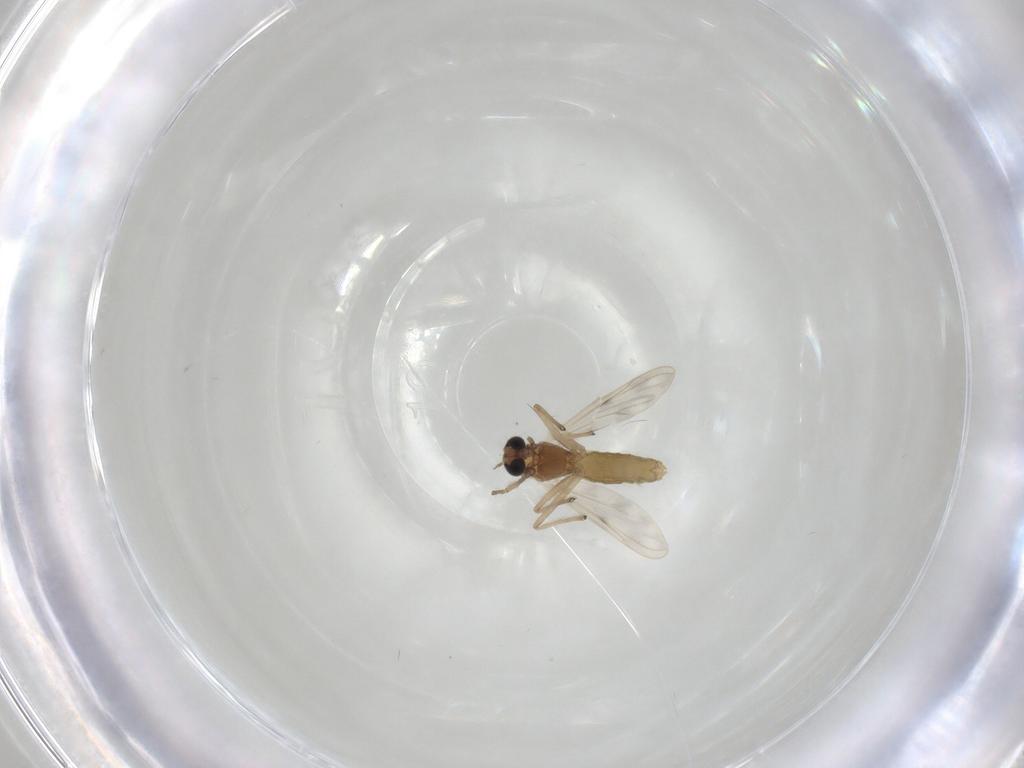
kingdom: Animalia
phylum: Arthropoda
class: Insecta
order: Diptera
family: Chironomidae
